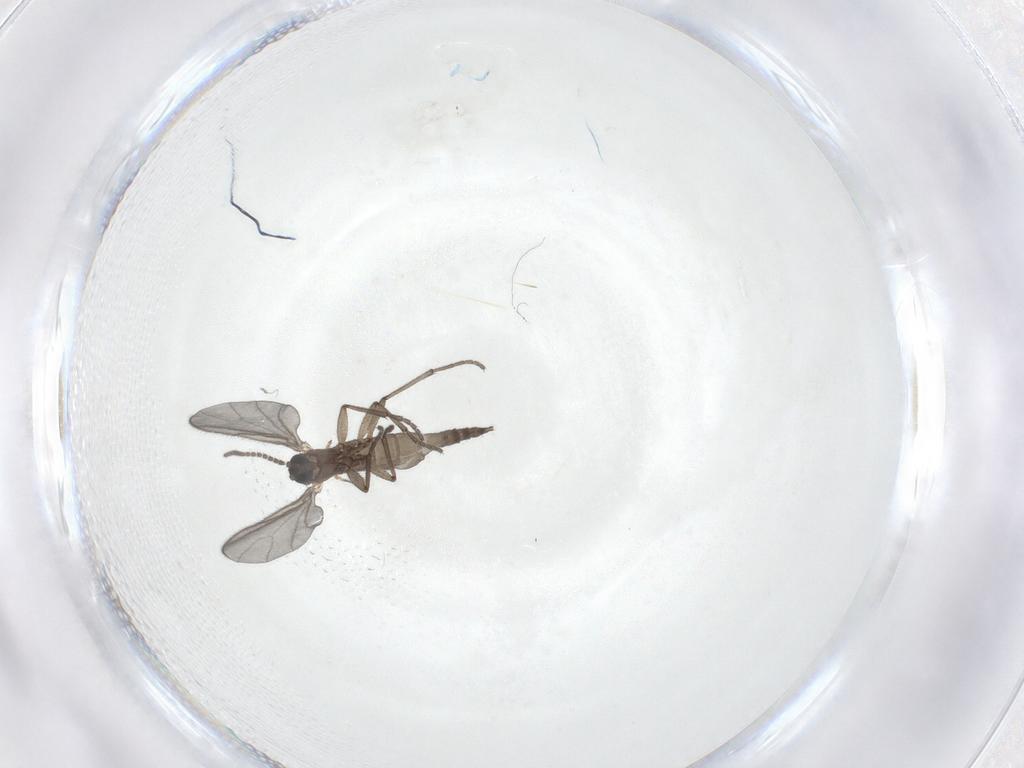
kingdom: Animalia
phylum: Arthropoda
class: Insecta
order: Diptera
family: Sciaridae
